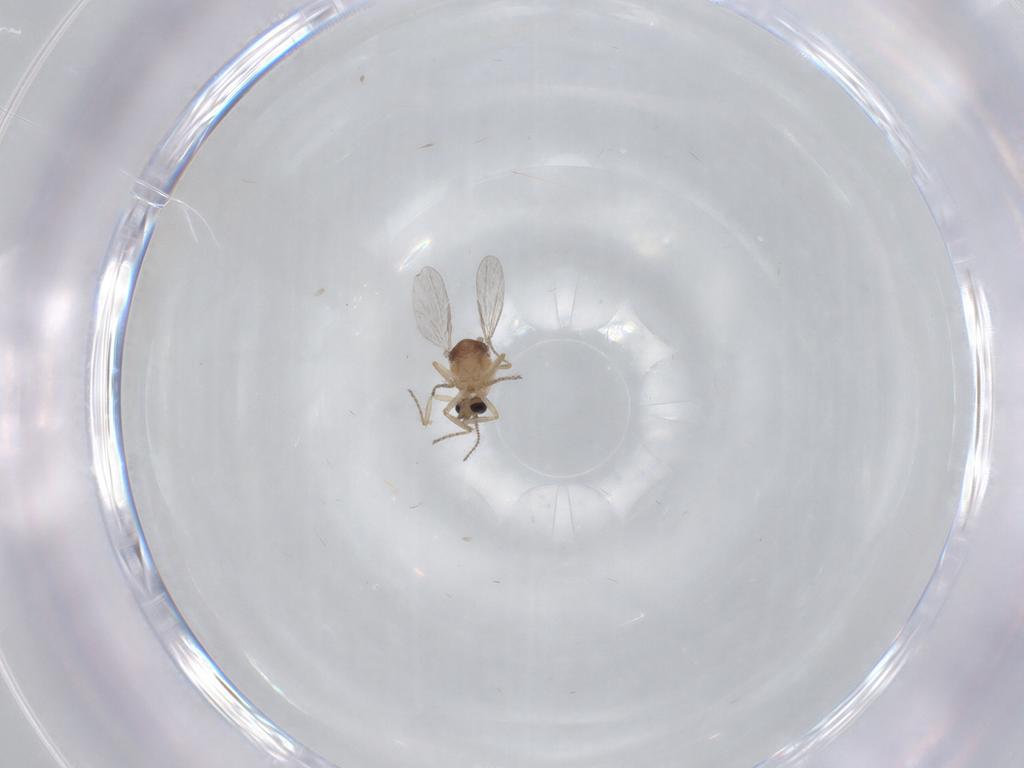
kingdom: Animalia
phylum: Arthropoda
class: Insecta
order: Diptera
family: Ceratopogonidae
